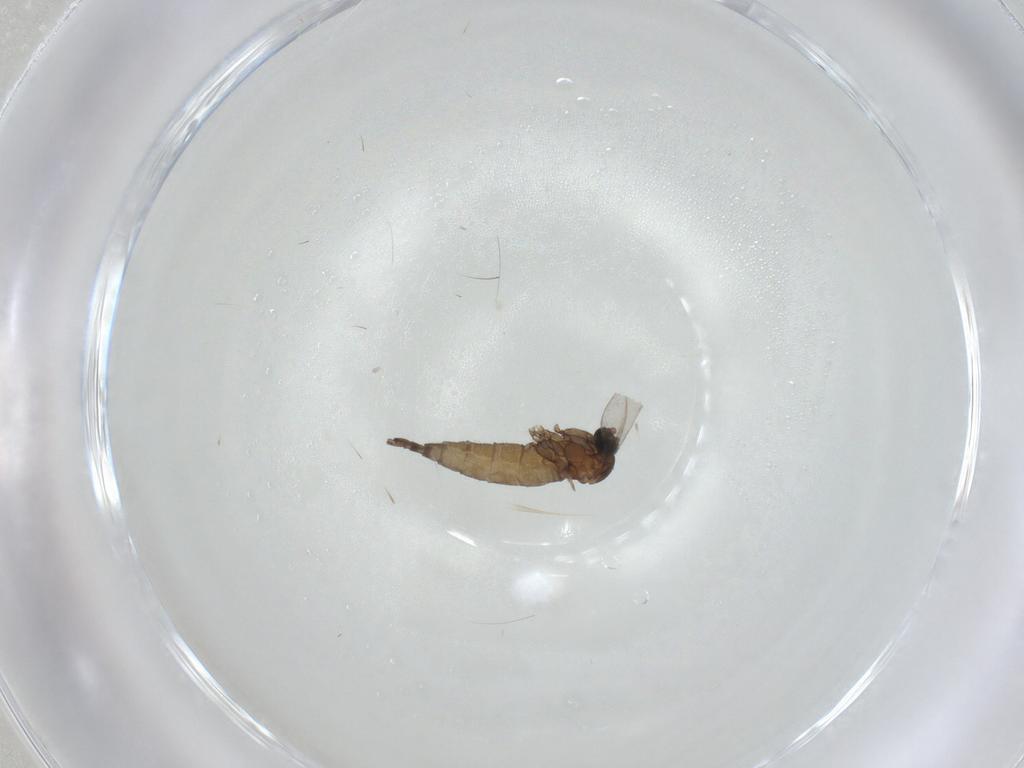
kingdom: Animalia
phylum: Arthropoda
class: Insecta
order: Diptera
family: Sciaridae
